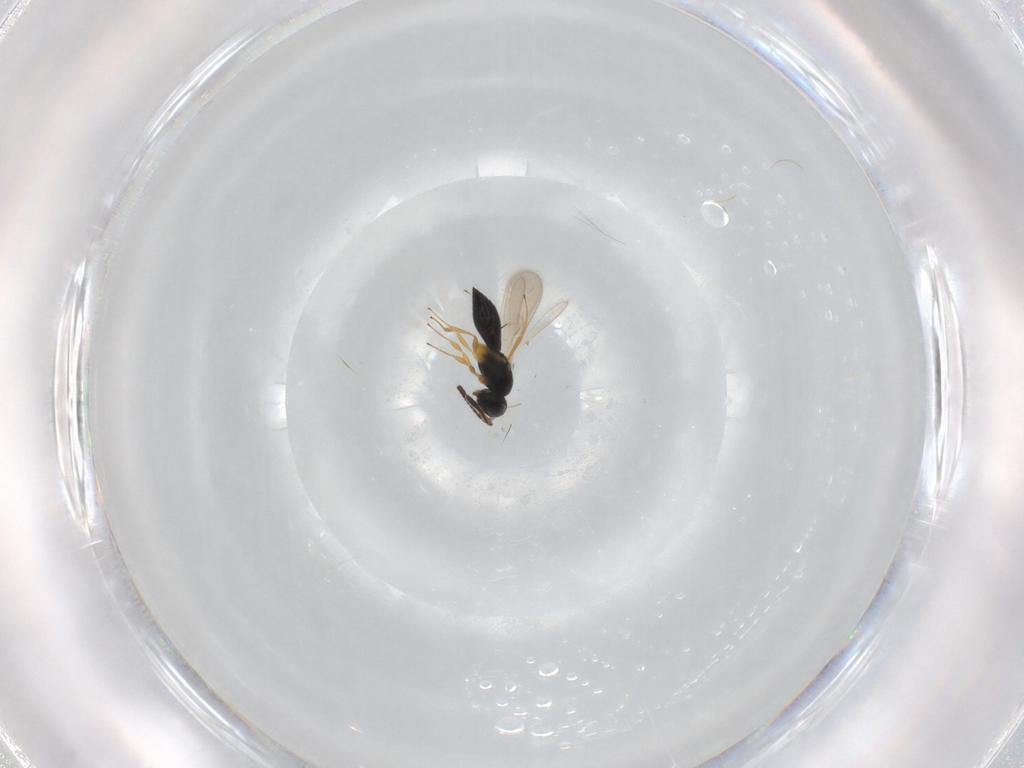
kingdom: Animalia
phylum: Arthropoda
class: Insecta
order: Hymenoptera
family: Scelionidae
